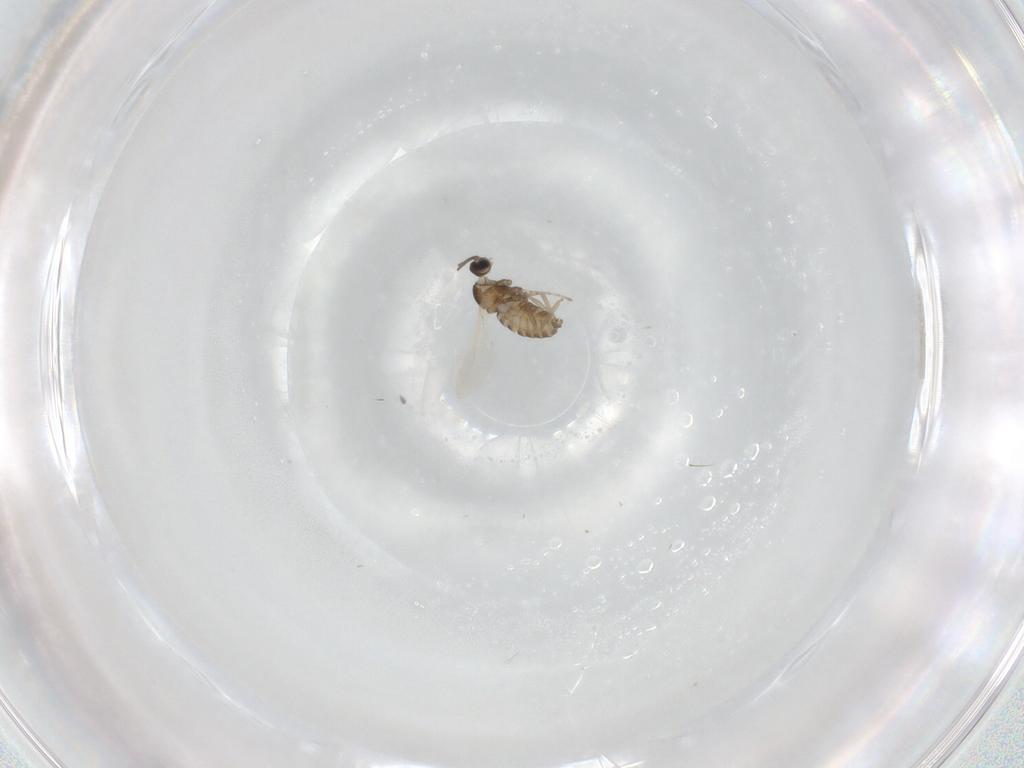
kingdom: Animalia
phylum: Arthropoda
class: Insecta
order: Diptera
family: Cecidomyiidae
